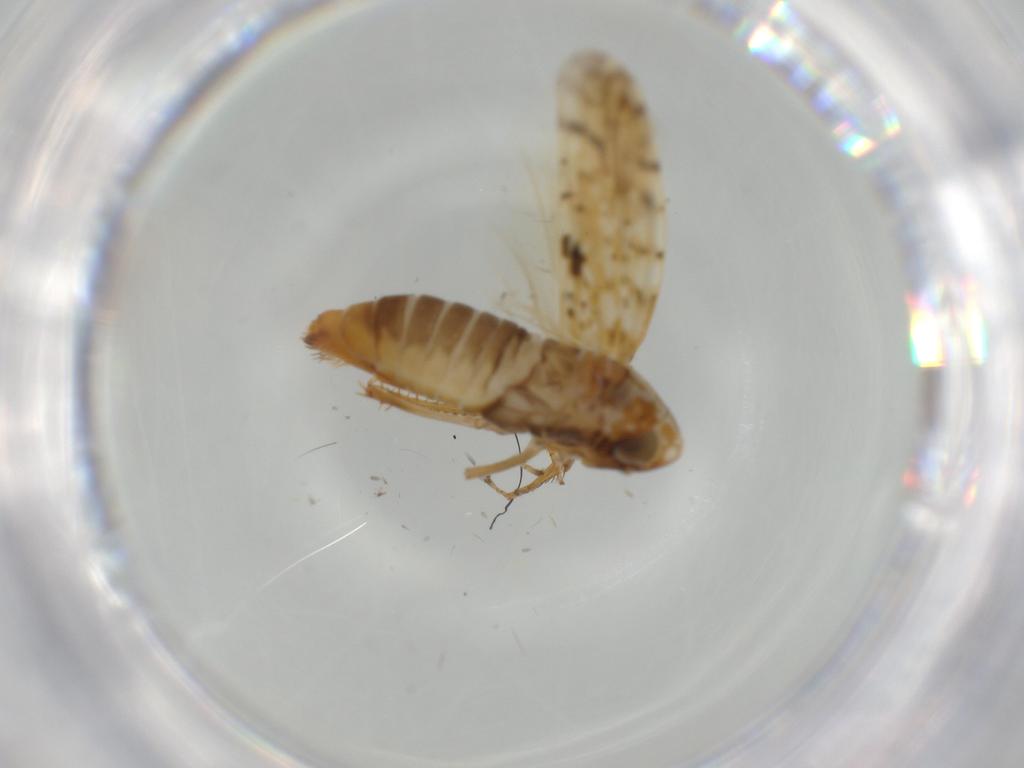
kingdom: Animalia
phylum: Arthropoda
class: Insecta
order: Hemiptera
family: Cicadellidae
